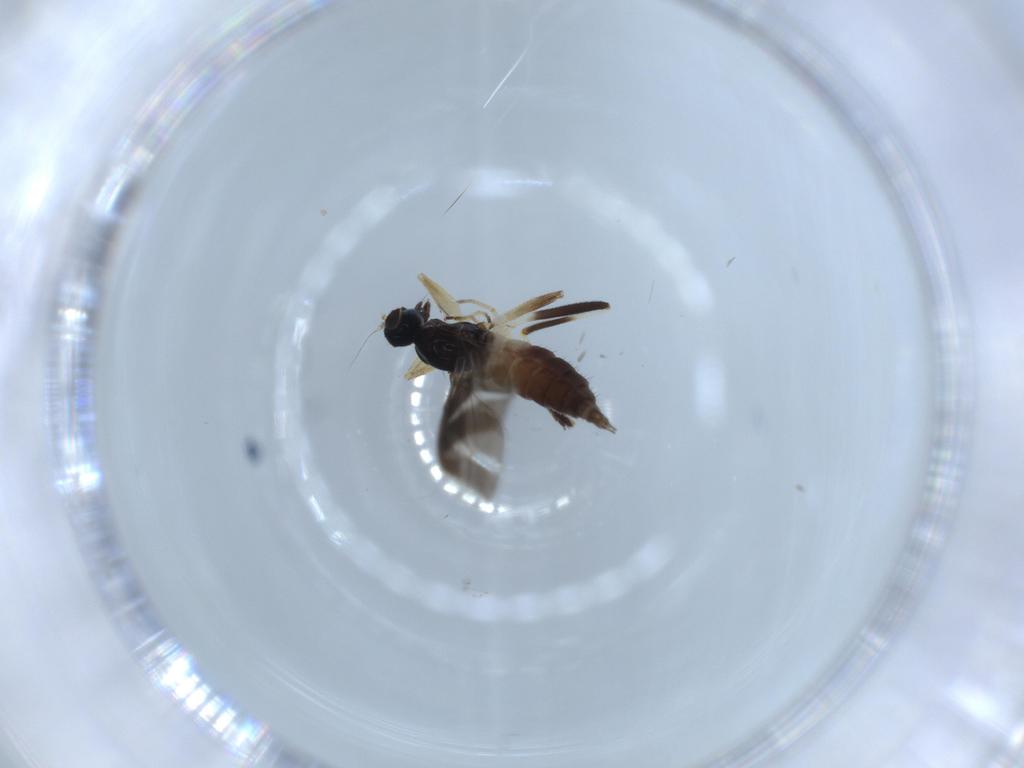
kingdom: Animalia
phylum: Arthropoda
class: Insecta
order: Diptera
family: Hybotidae
